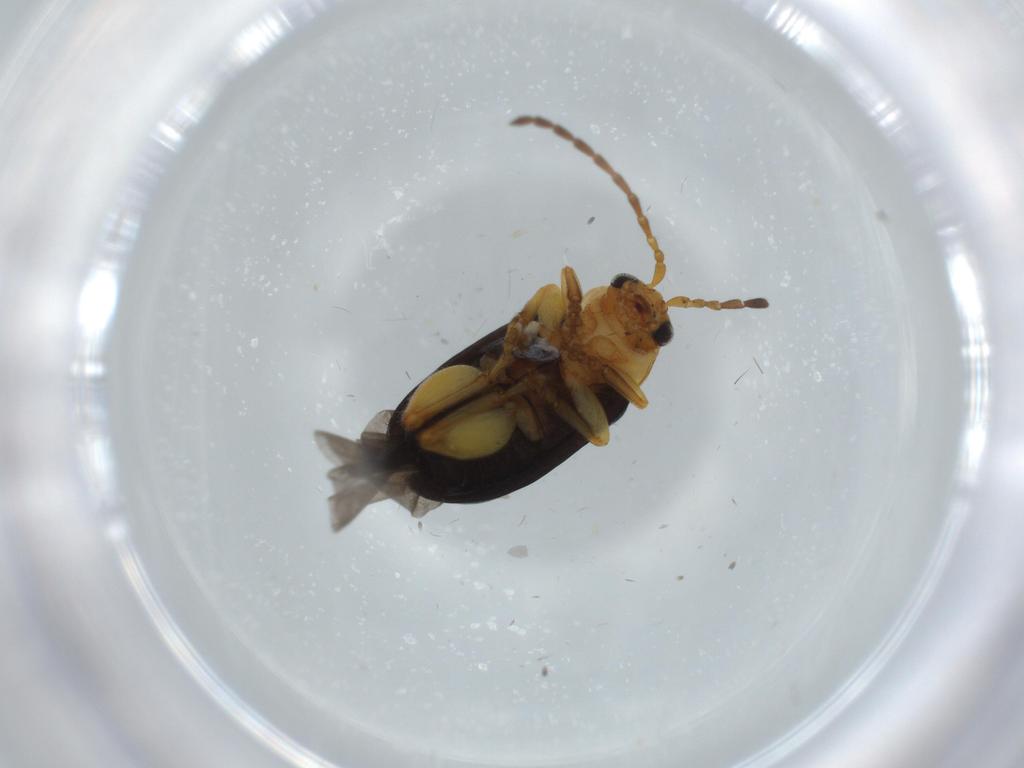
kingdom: Animalia
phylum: Arthropoda
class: Insecta
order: Coleoptera
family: Chrysomelidae
